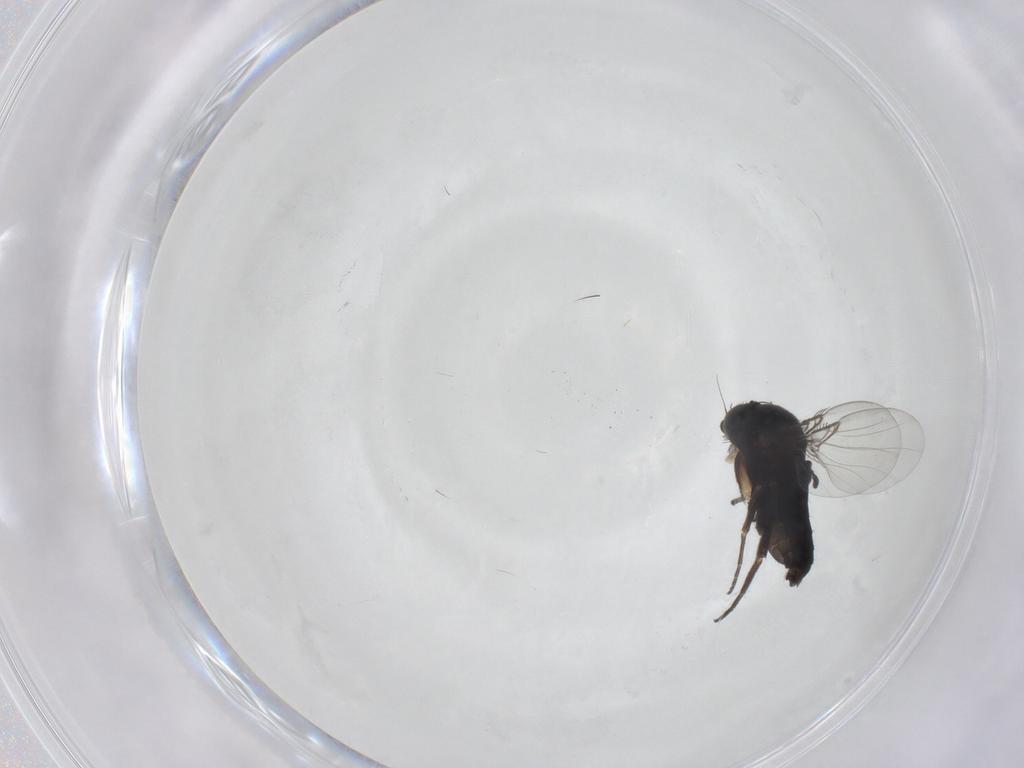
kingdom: Animalia
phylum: Arthropoda
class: Insecta
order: Diptera
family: Phoridae
